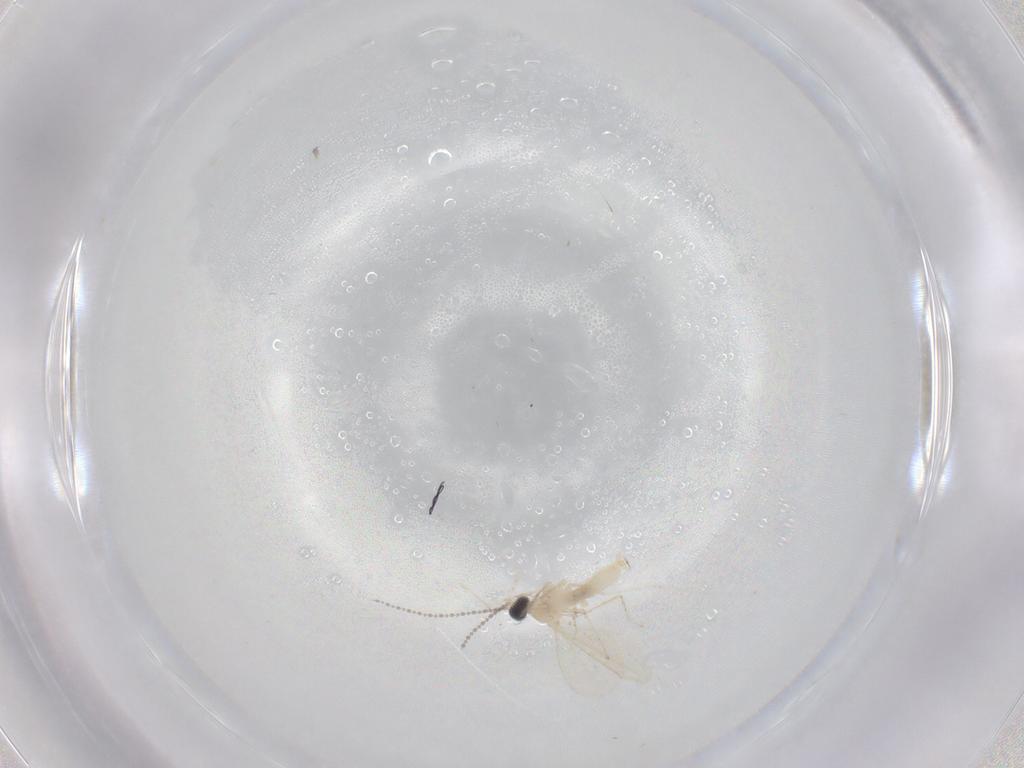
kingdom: Animalia
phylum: Arthropoda
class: Insecta
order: Diptera
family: Cecidomyiidae
